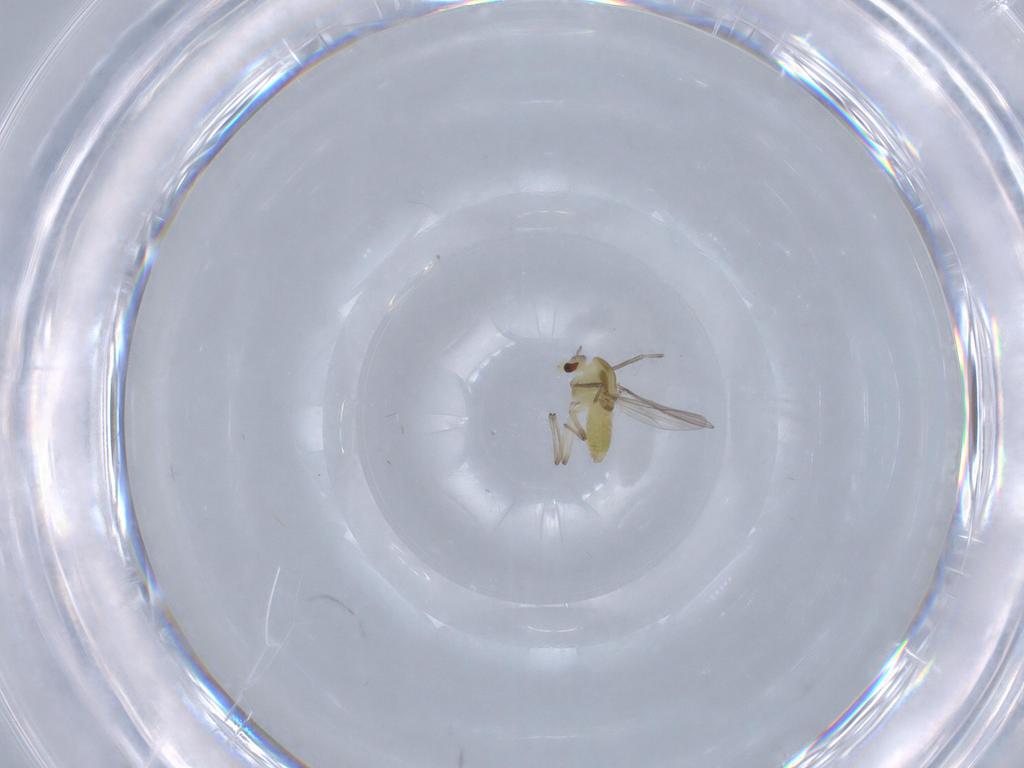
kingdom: Animalia
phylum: Arthropoda
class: Insecta
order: Diptera
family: Chironomidae
